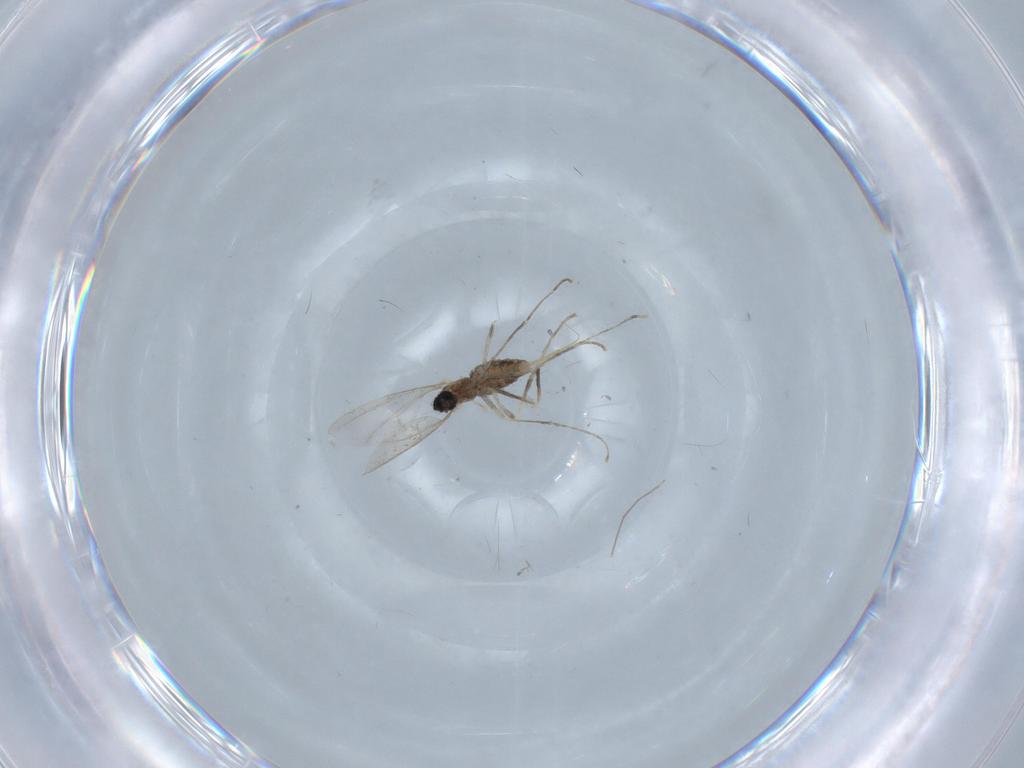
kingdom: Animalia
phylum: Arthropoda
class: Insecta
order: Diptera
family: Cecidomyiidae
